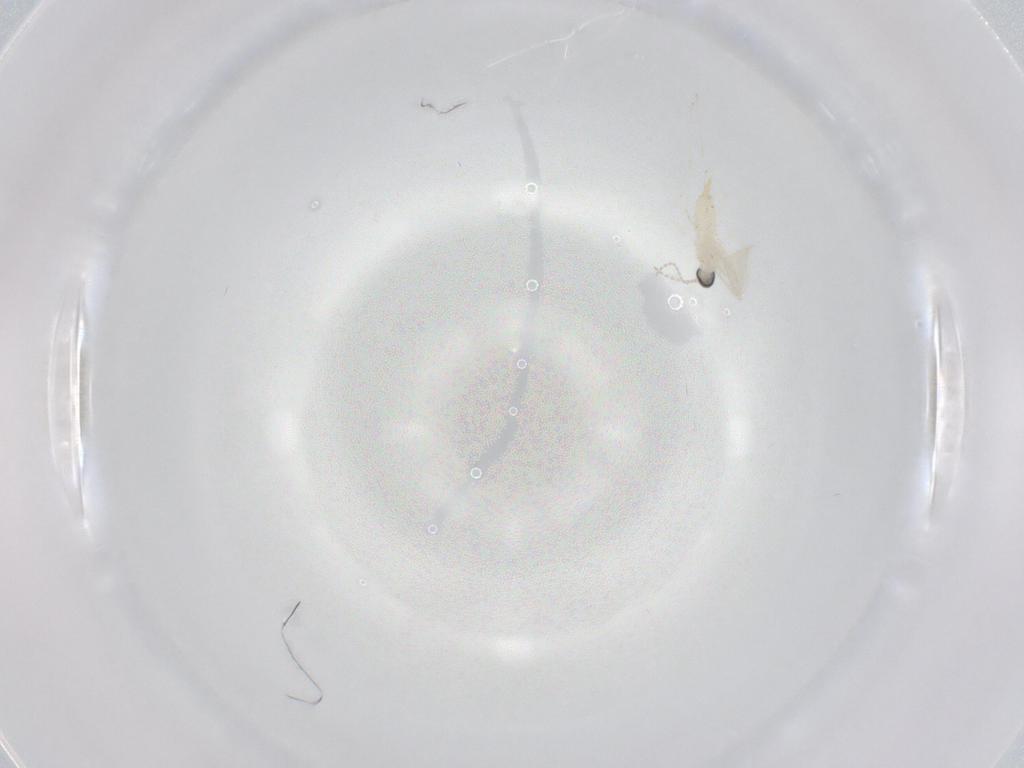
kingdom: Animalia
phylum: Arthropoda
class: Insecta
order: Diptera
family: Cecidomyiidae
